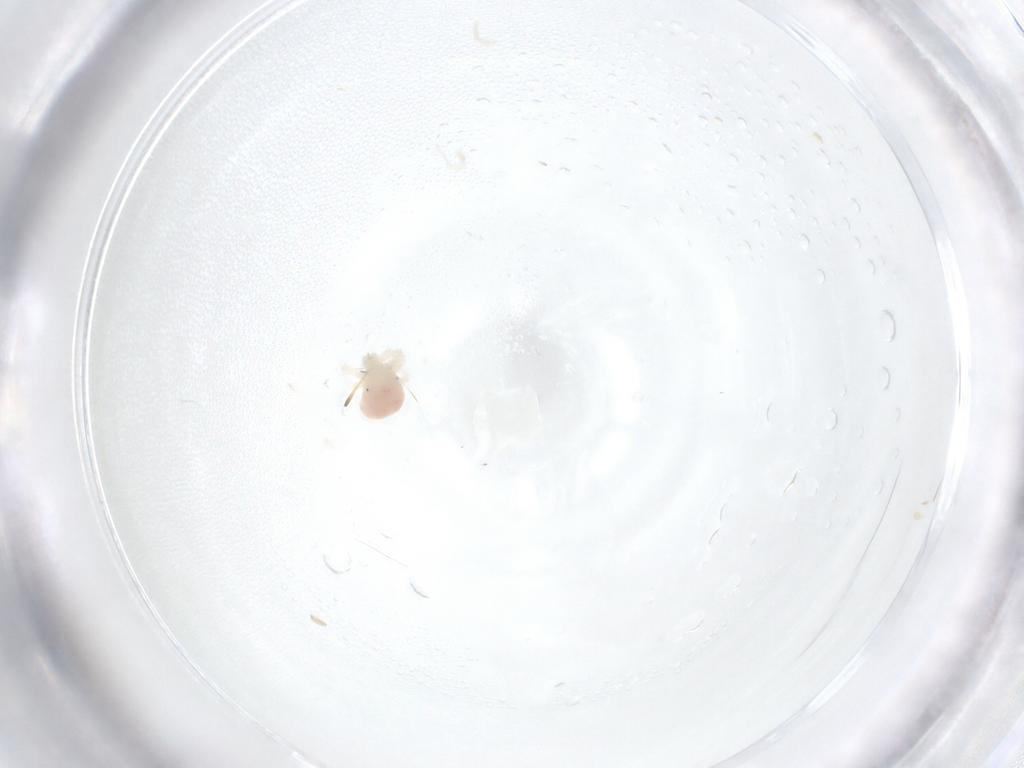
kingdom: Animalia
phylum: Arthropoda
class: Arachnida
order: Trombidiformes
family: Anystidae
